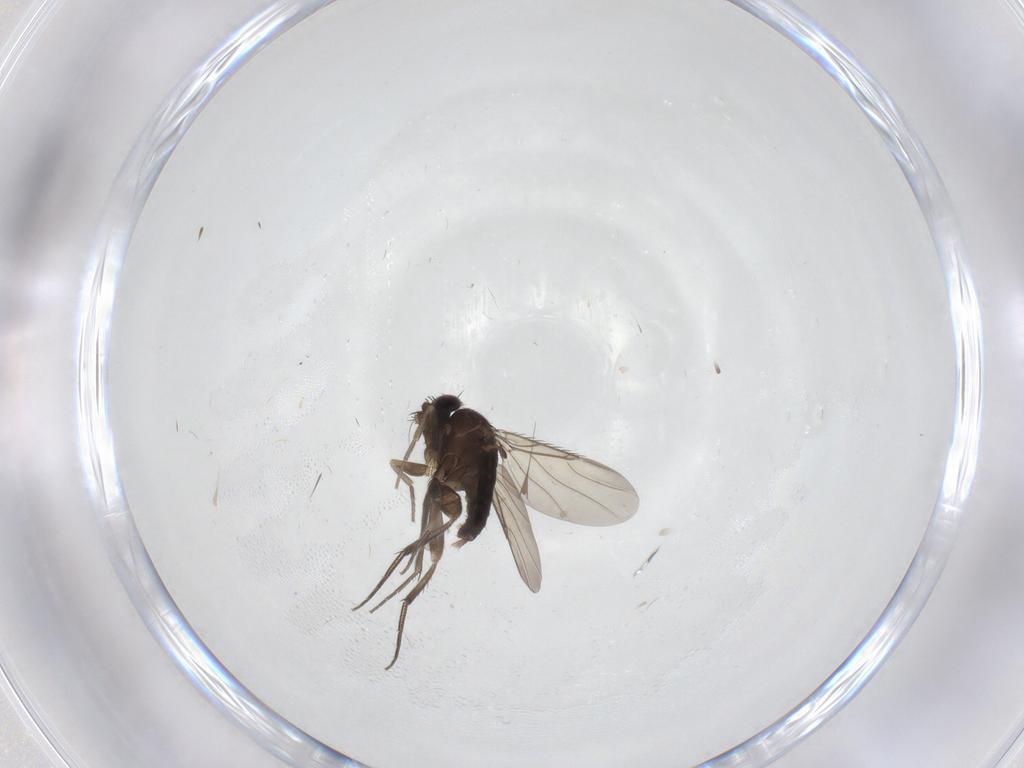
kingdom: Animalia
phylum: Arthropoda
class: Insecta
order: Diptera
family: Phoridae
